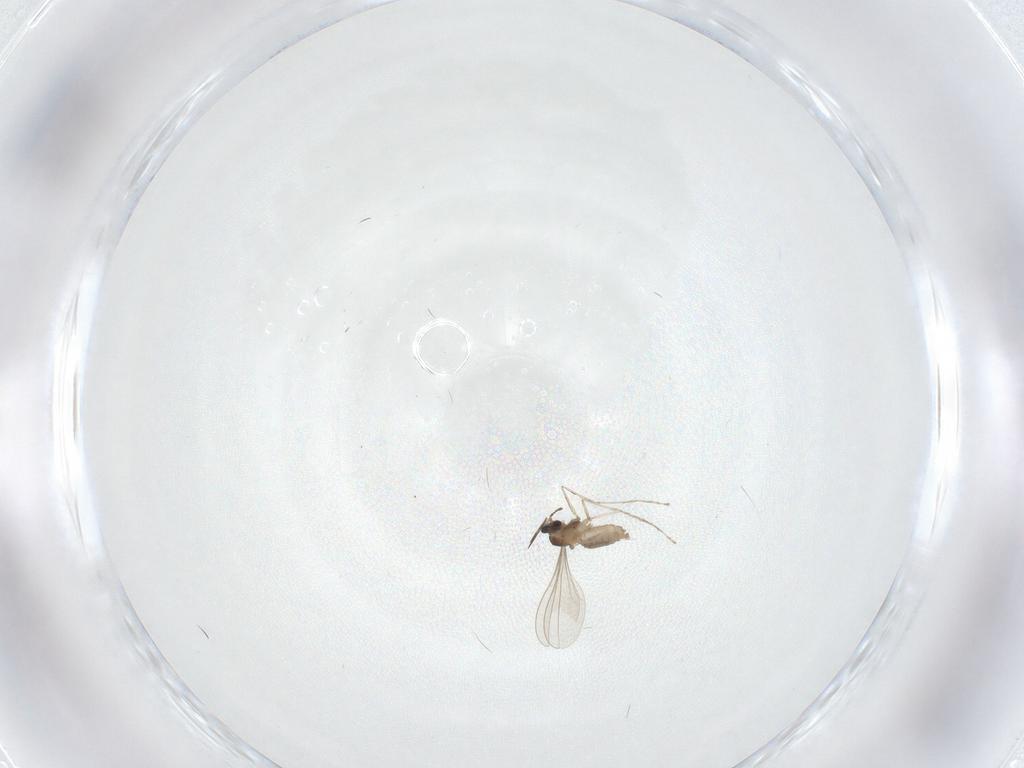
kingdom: Animalia
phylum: Arthropoda
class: Insecta
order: Diptera
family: Cecidomyiidae
